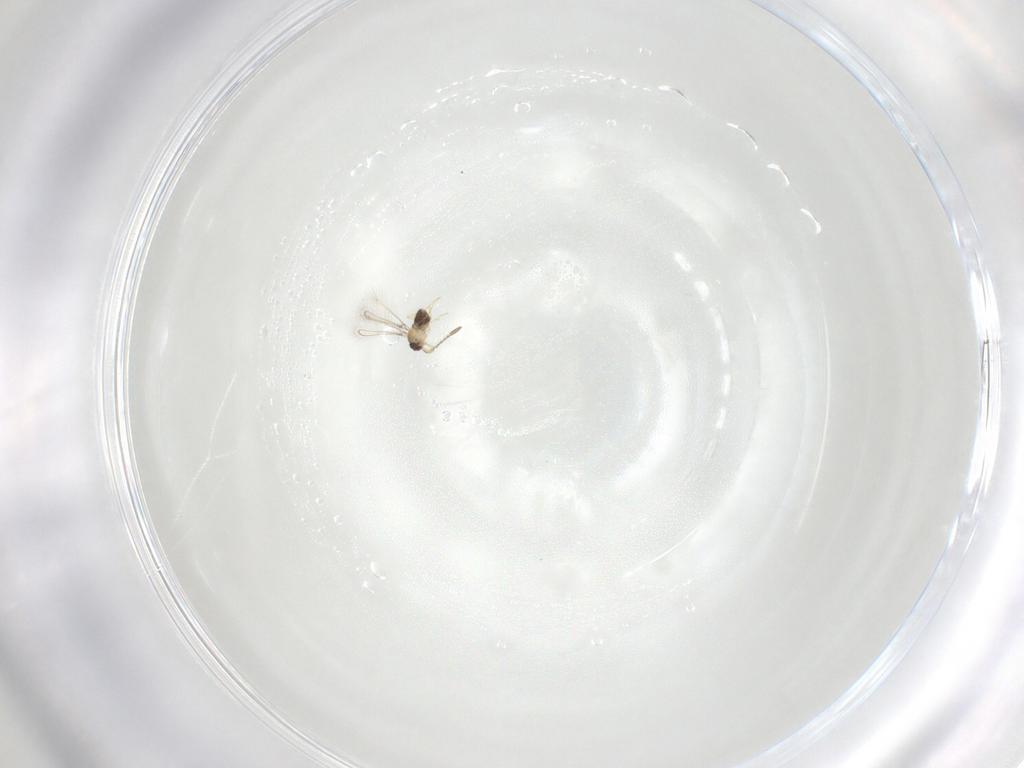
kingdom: Animalia
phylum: Arthropoda
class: Insecta
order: Hymenoptera
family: Mymaridae
